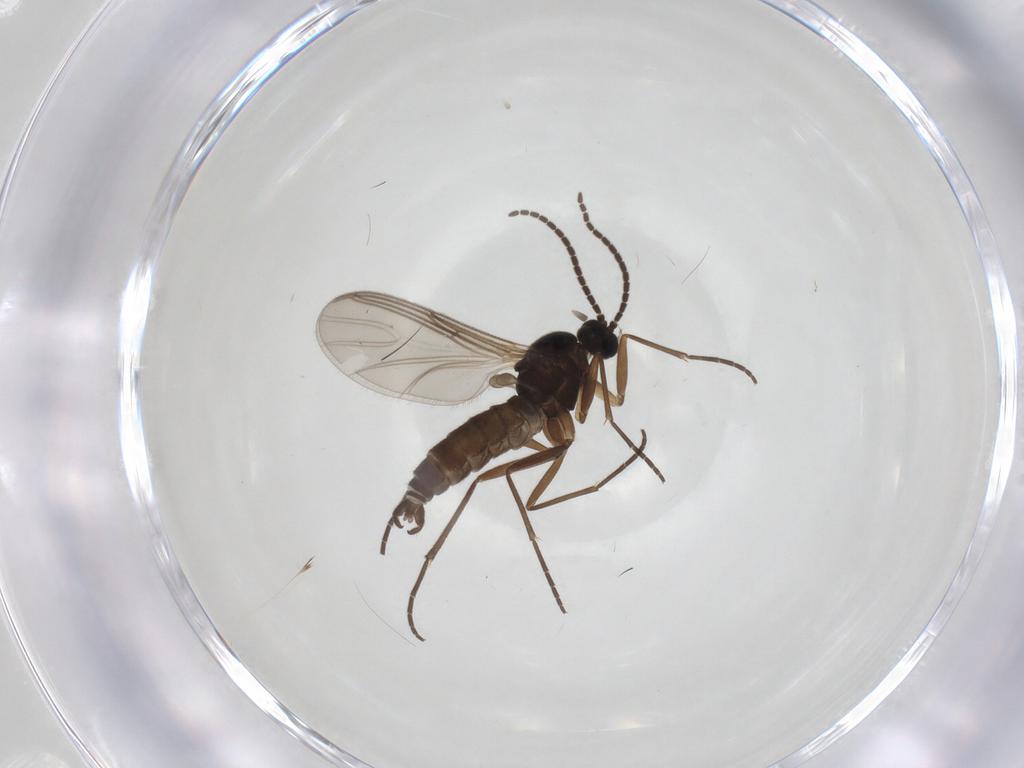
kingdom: Animalia
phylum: Arthropoda
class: Insecta
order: Diptera
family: Sciaridae
